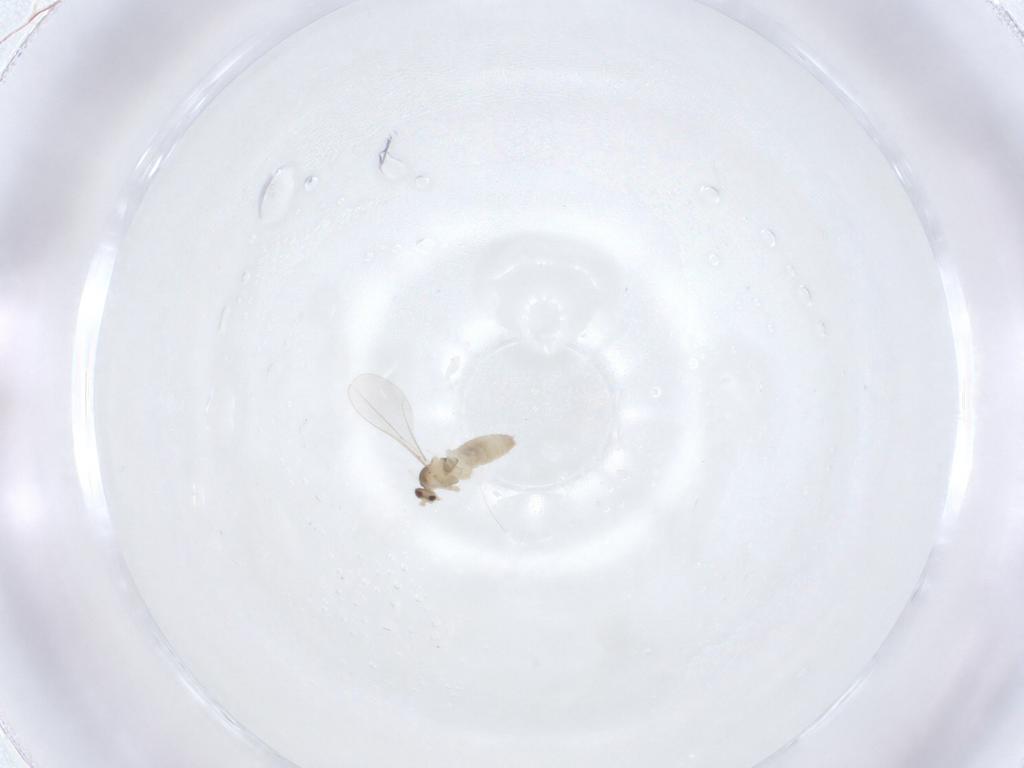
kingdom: Animalia
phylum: Arthropoda
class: Insecta
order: Diptera
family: Cecidomyiidae
